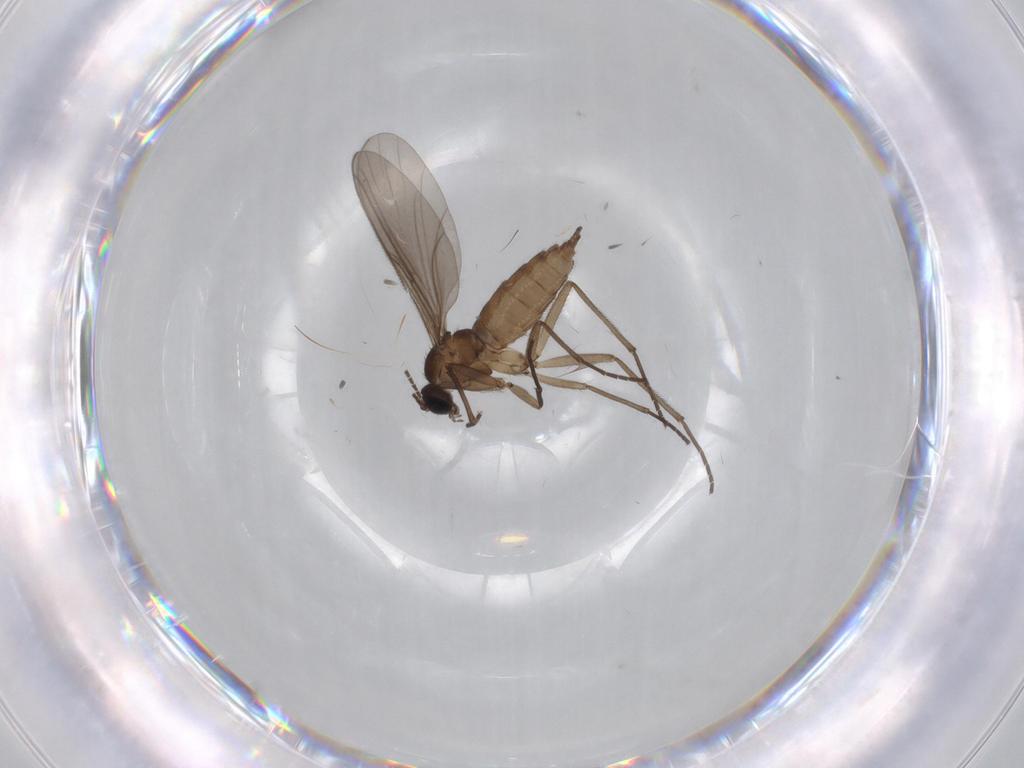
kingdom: Animalia
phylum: Arthropoda
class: Insecta
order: Diptera
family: Sciaridae
